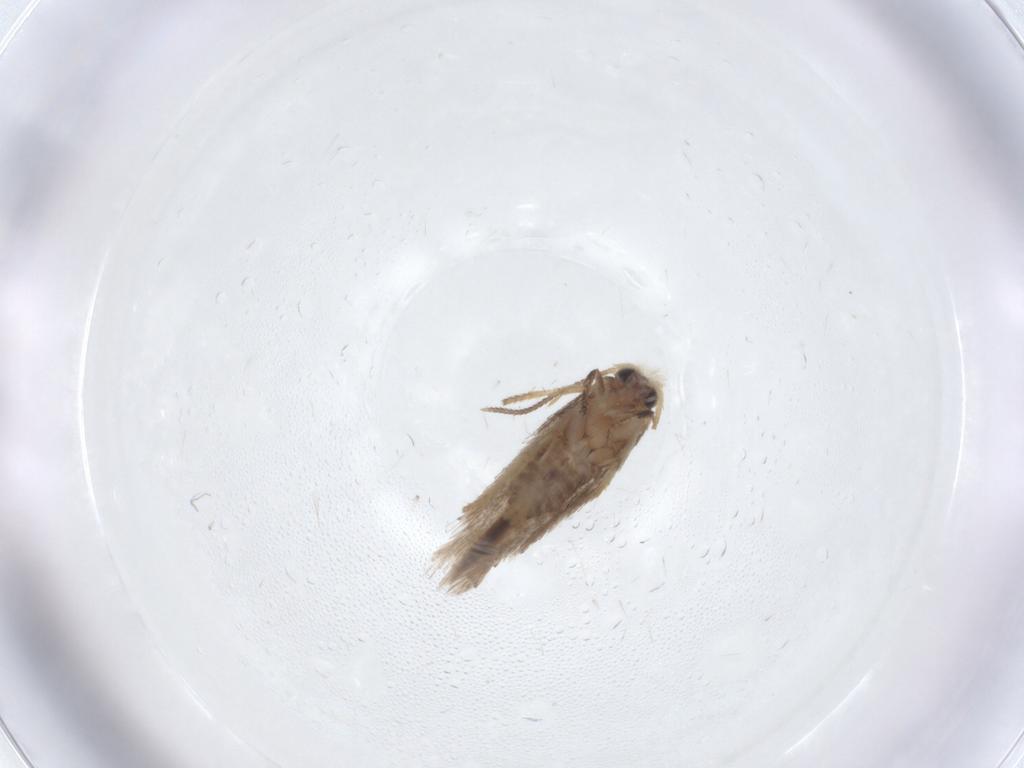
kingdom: Animalia
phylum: Arthropoda
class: Insecta
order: Lepidoptera
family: Nepticulidae
